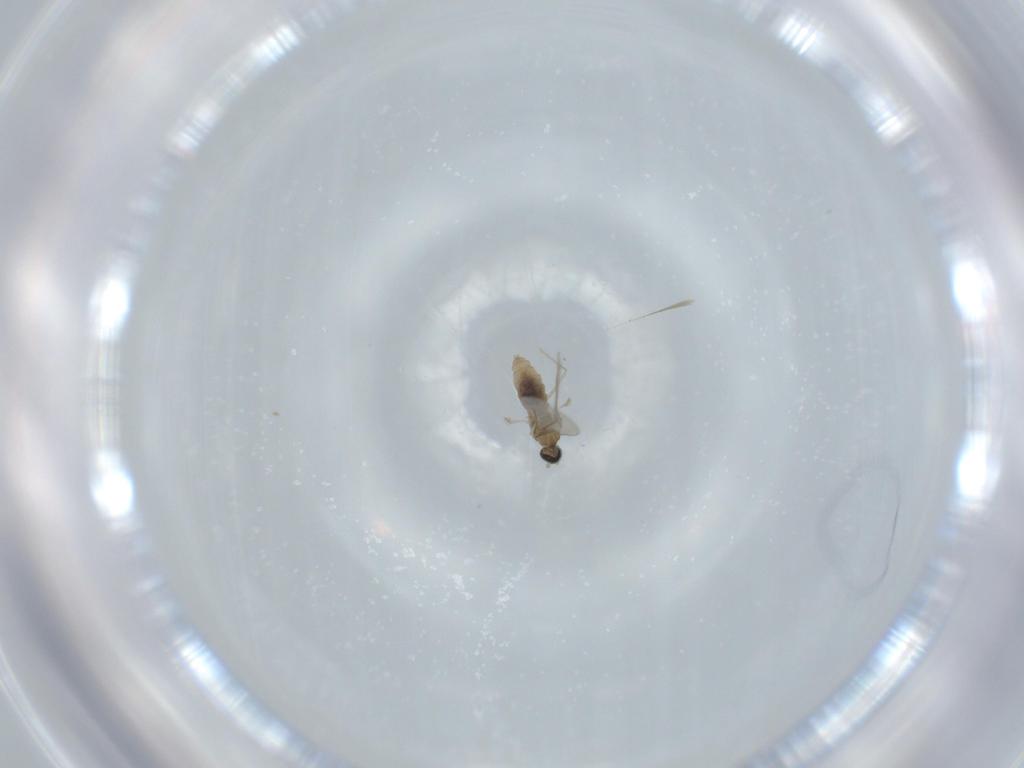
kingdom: Animalia
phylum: Arthropoda
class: Insecta
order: Diptera
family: Cecidomyiidae
